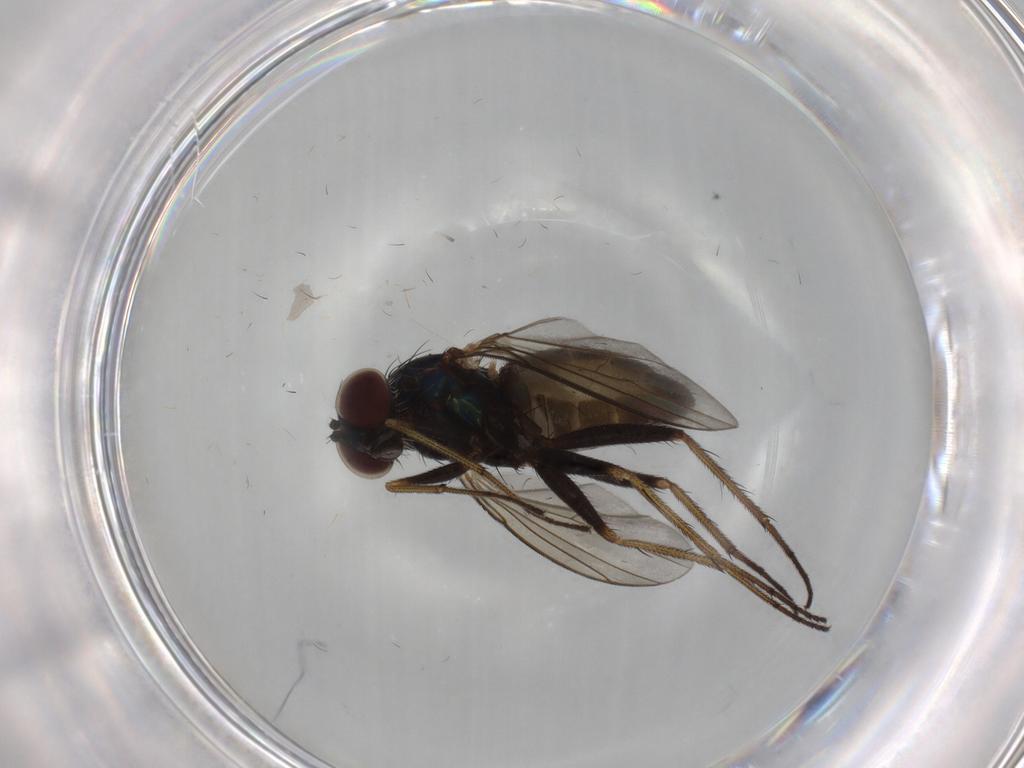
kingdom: Animalia
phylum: Arthropoda
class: Insecta
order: Diptera
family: Dolichopodidae
